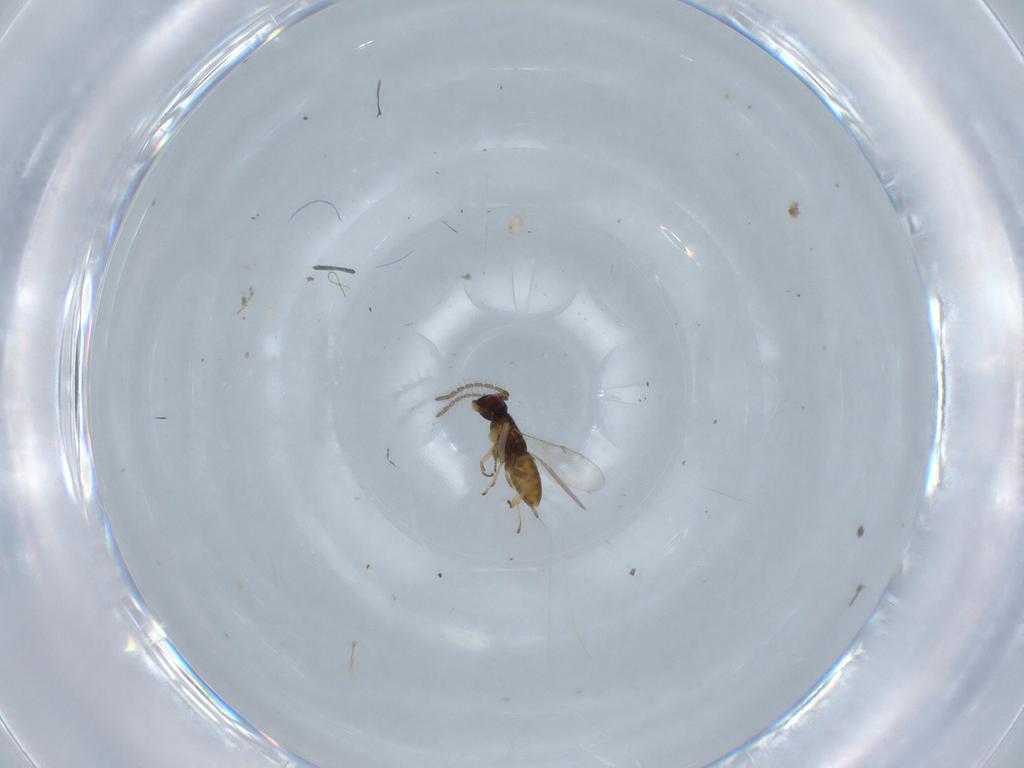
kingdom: Animalia
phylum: Arthropoda
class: Insecta
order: Hymenoptera
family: Encyrtidae
